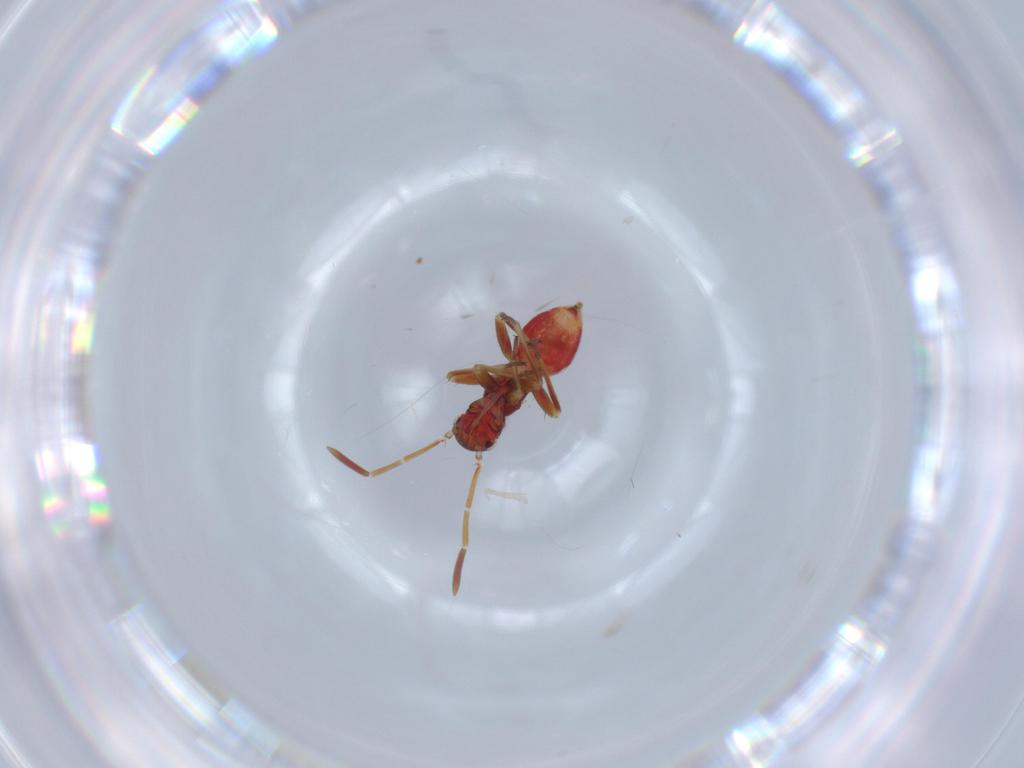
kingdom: Animalia
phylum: Arthropoda
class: Insecta
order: Hemiptera
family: Miridae
